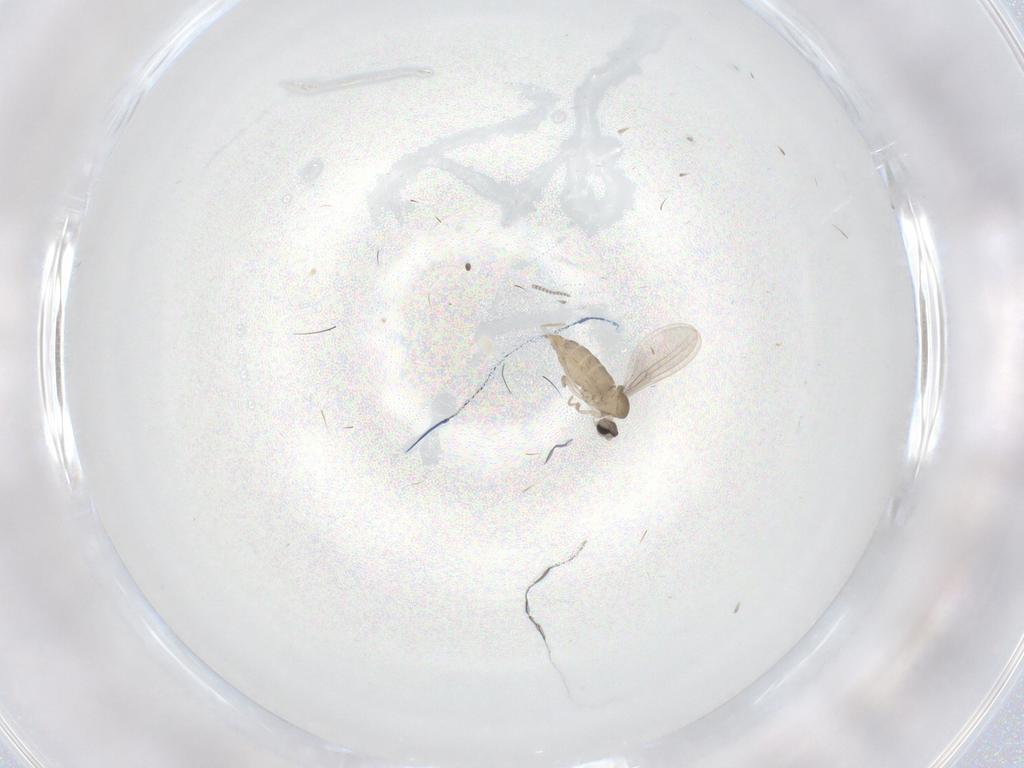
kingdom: Animalia
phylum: Arthropoda
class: Insecta
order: Diptera
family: Cecidomyiidae
